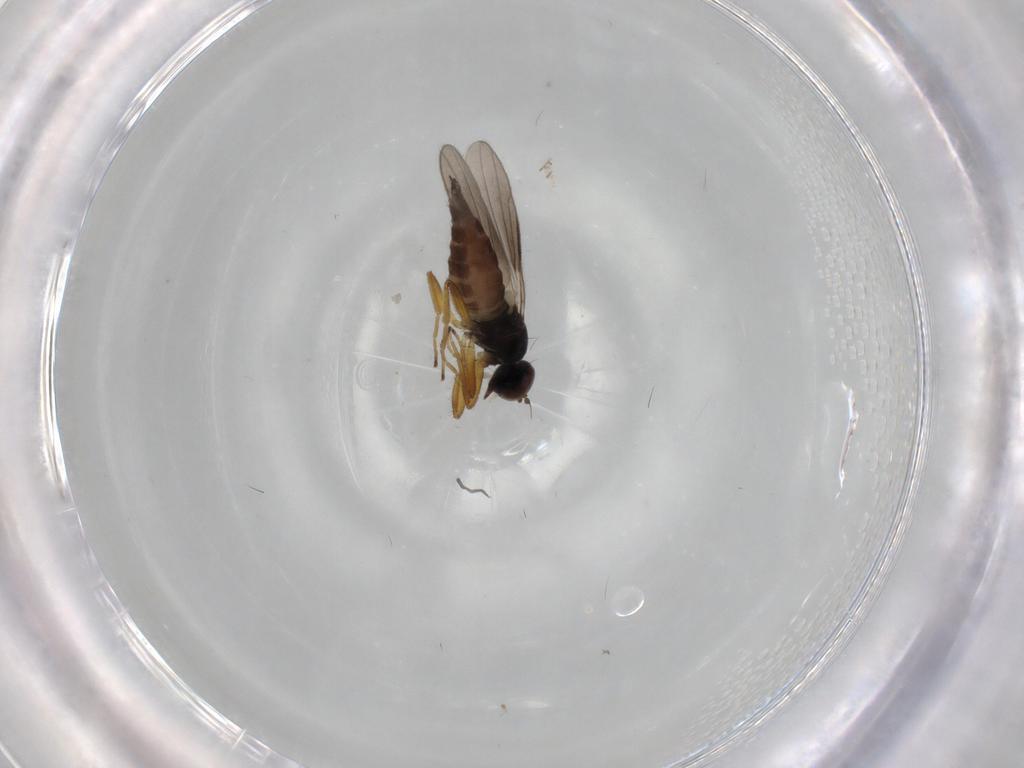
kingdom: Animalia
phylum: Arthropoda
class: Insecta
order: Diptera
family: Hybotidae
